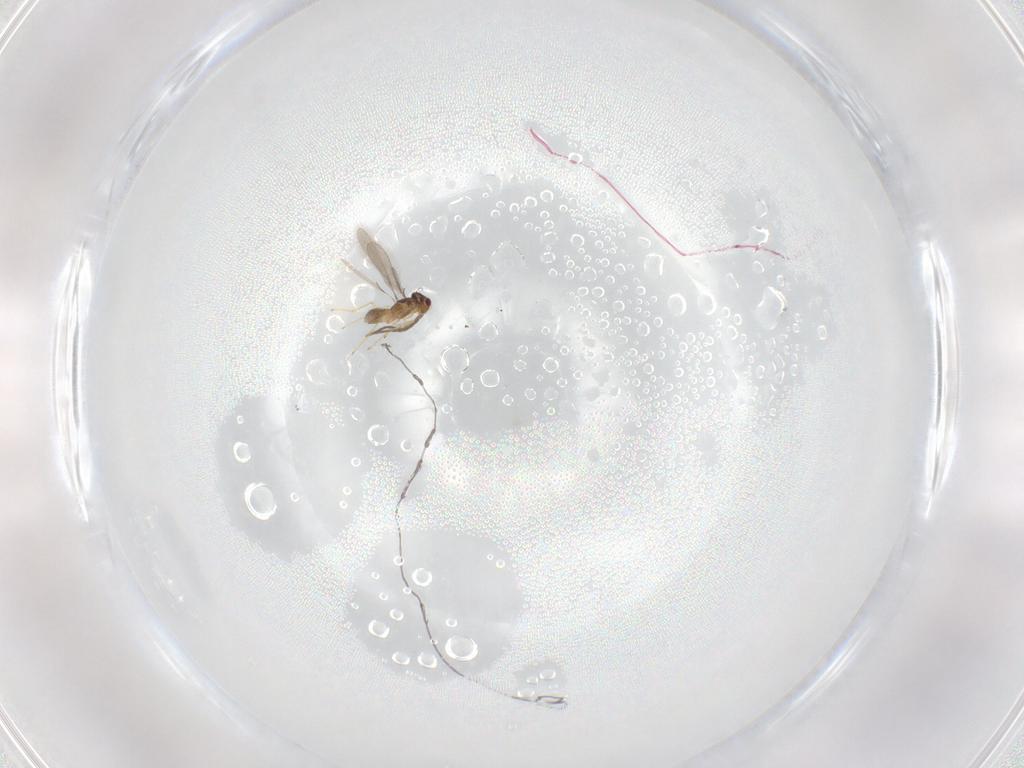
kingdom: Animalia
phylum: Arthropoda
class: Insecta
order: Hymenoptera
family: Mymaridae
